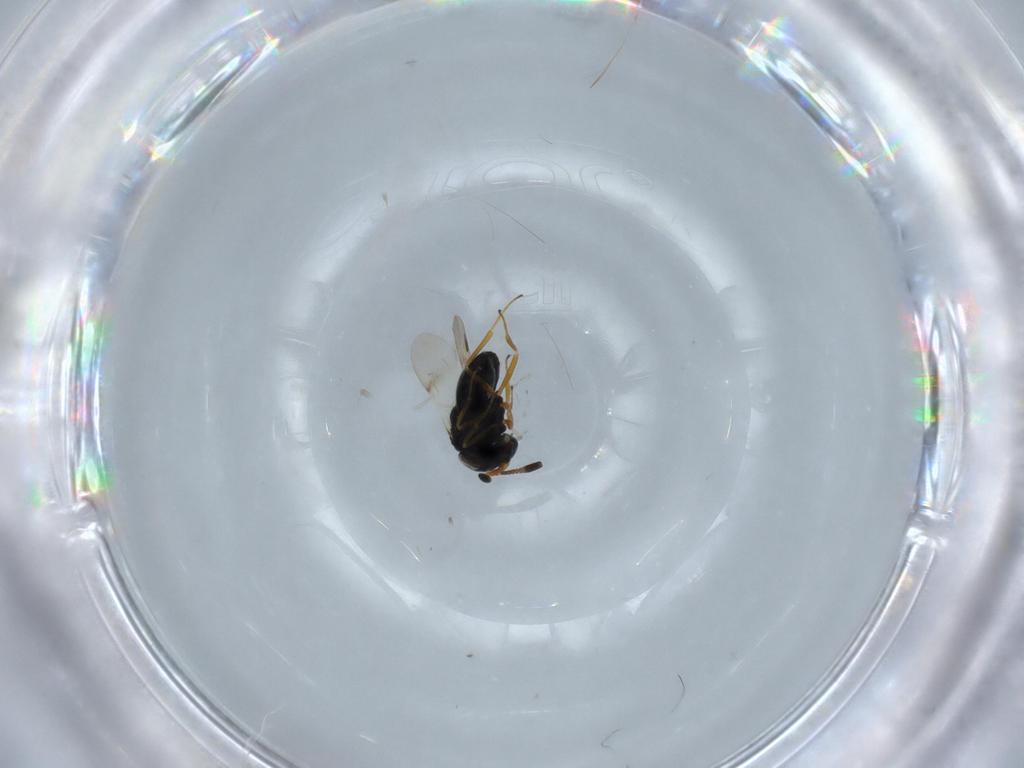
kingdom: Animalia
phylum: Arthropoda
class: Insecta
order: Hymenoptera
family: Scelionidae
